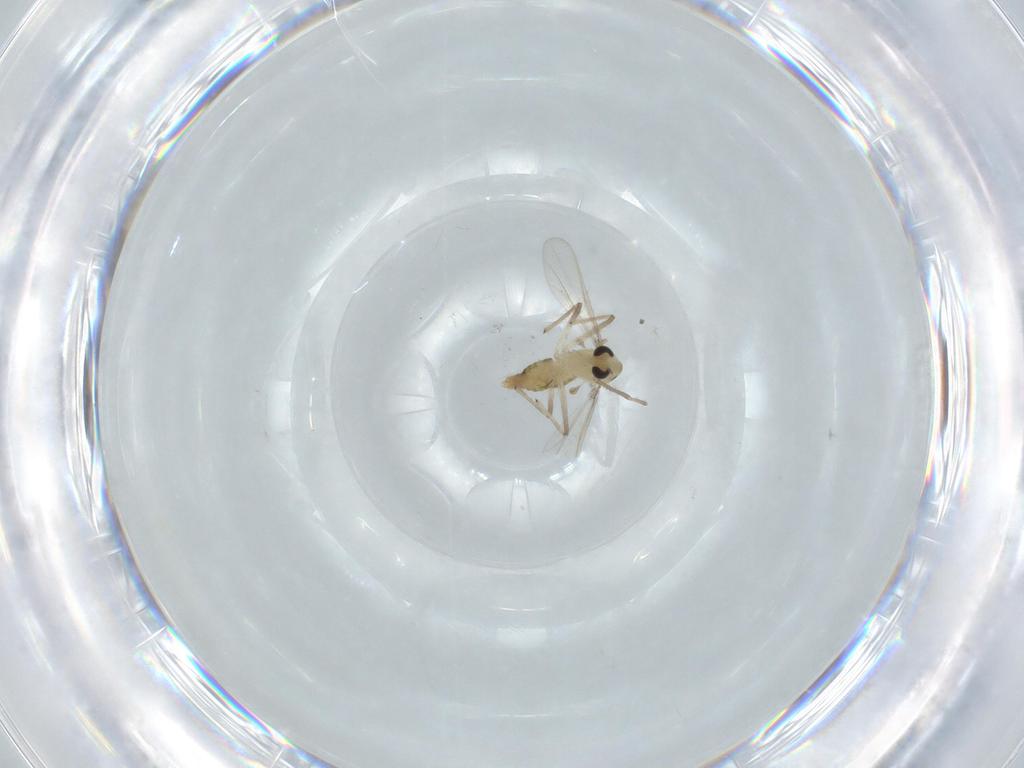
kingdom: Animalia
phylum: Arthropoda
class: Insecta
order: Diptera
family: Chironomidae
